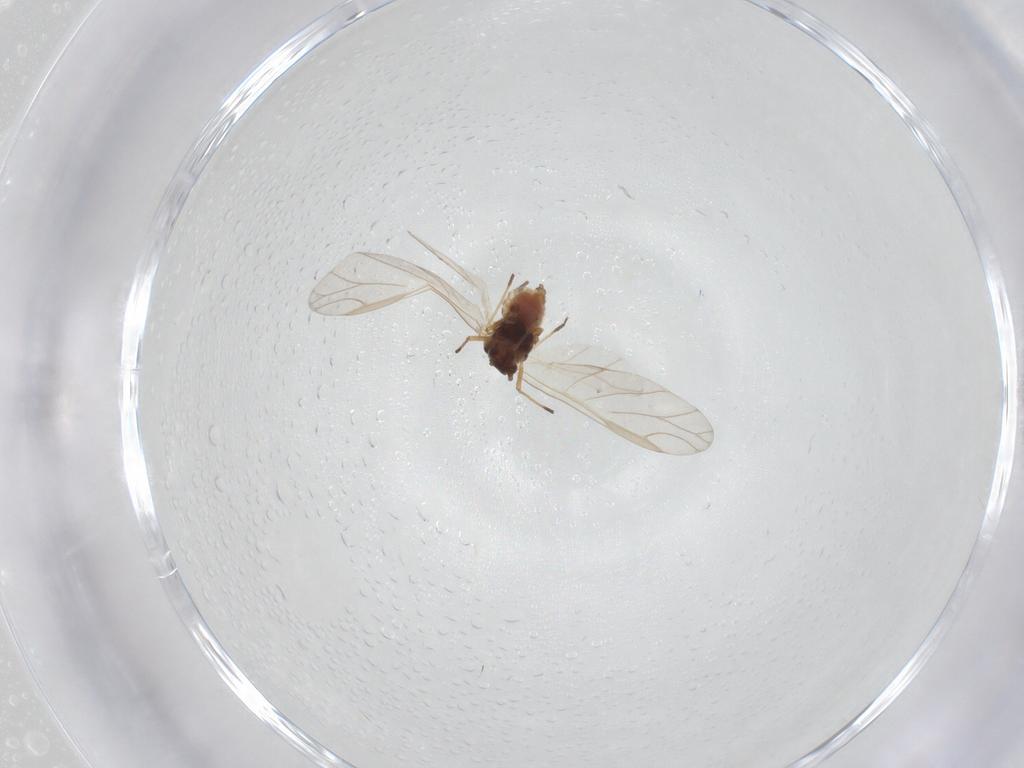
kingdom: Animalia
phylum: Arthropoda
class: Insecta
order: Hemiptera
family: Aphididae
